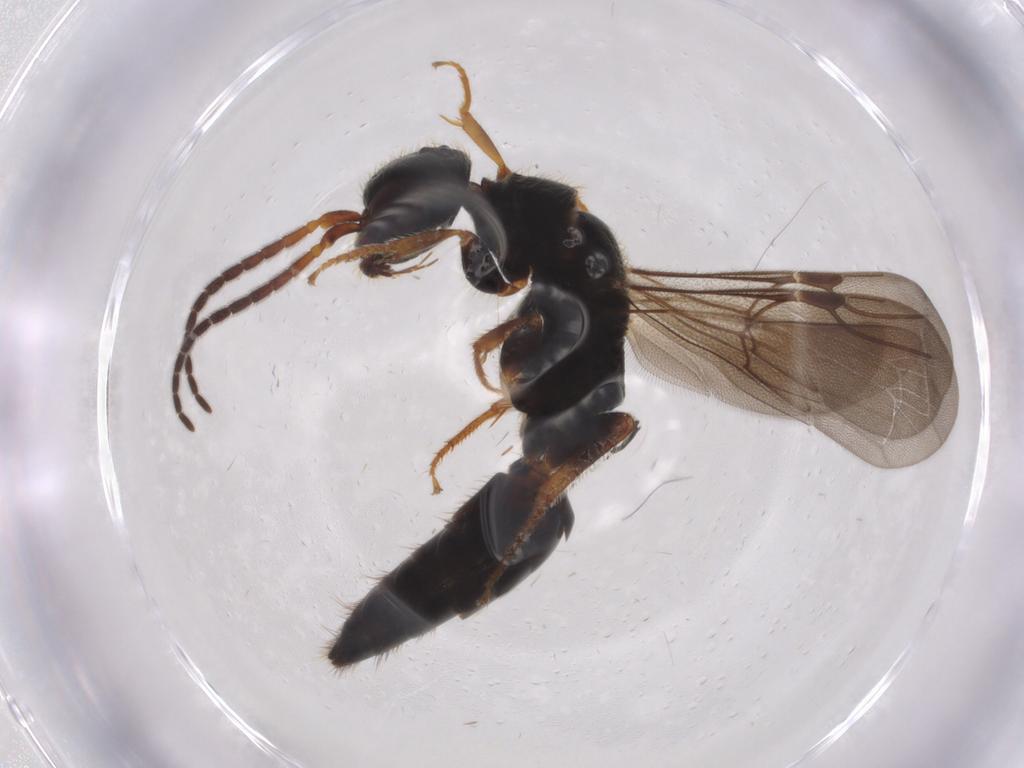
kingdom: Animalia
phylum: Arthropoda
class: Insecta
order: Hymenoptera
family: Bethylidae
